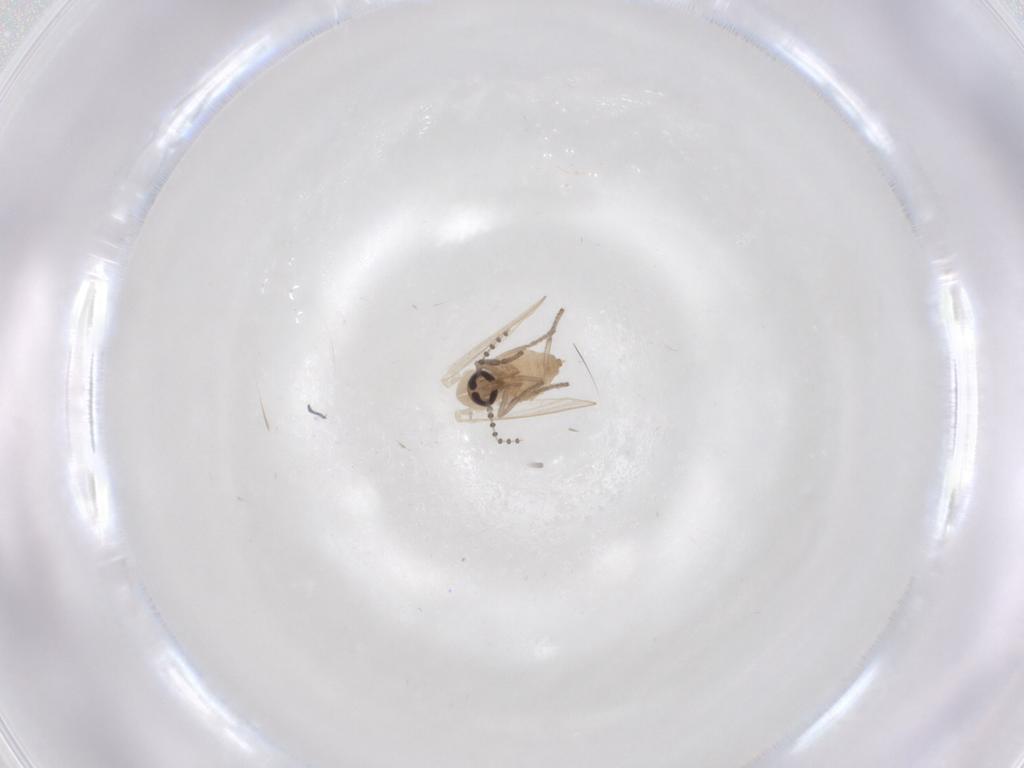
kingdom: Animalia
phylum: Arthropoda
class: Insecta
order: Diptera
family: Psychodidae
